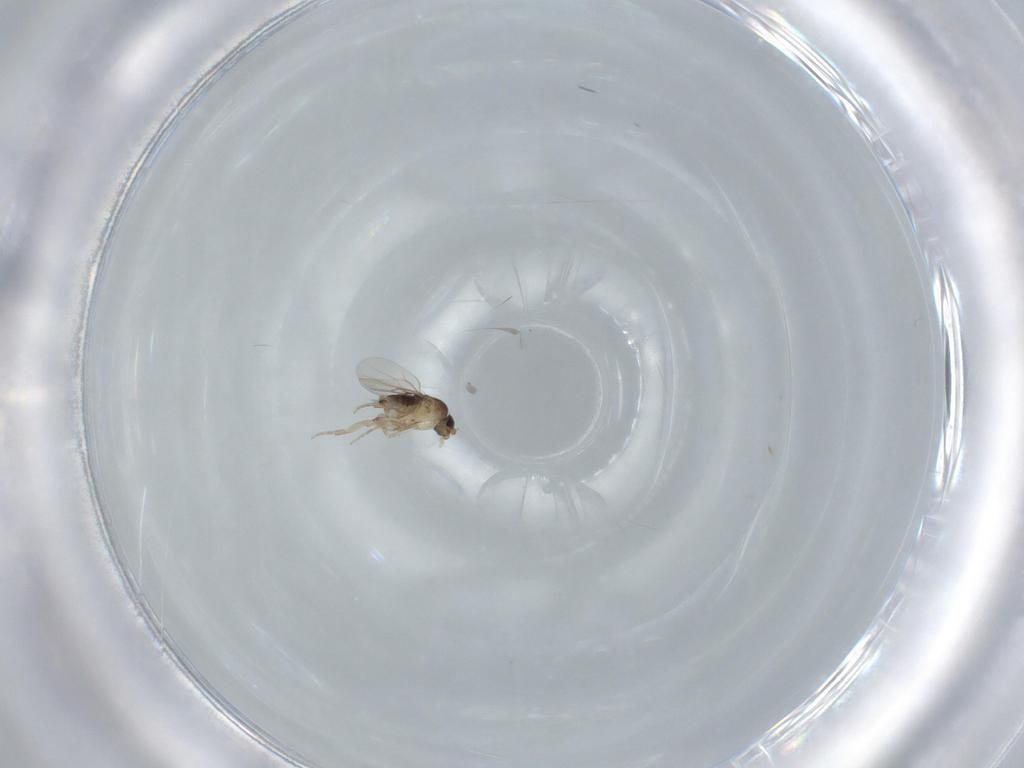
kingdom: Animalia
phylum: Arthropoda
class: Insecta
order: Diptera
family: Phoridae
